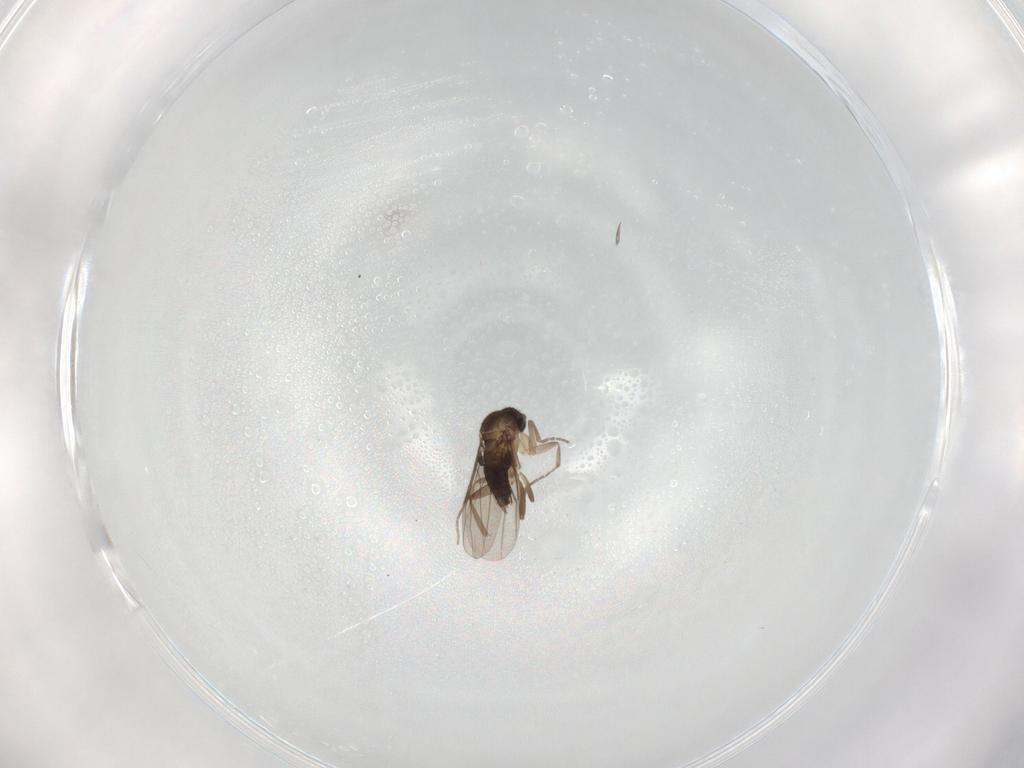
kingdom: Animalia
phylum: Arthropoda
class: Insecta
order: Diptera
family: Phoridae
